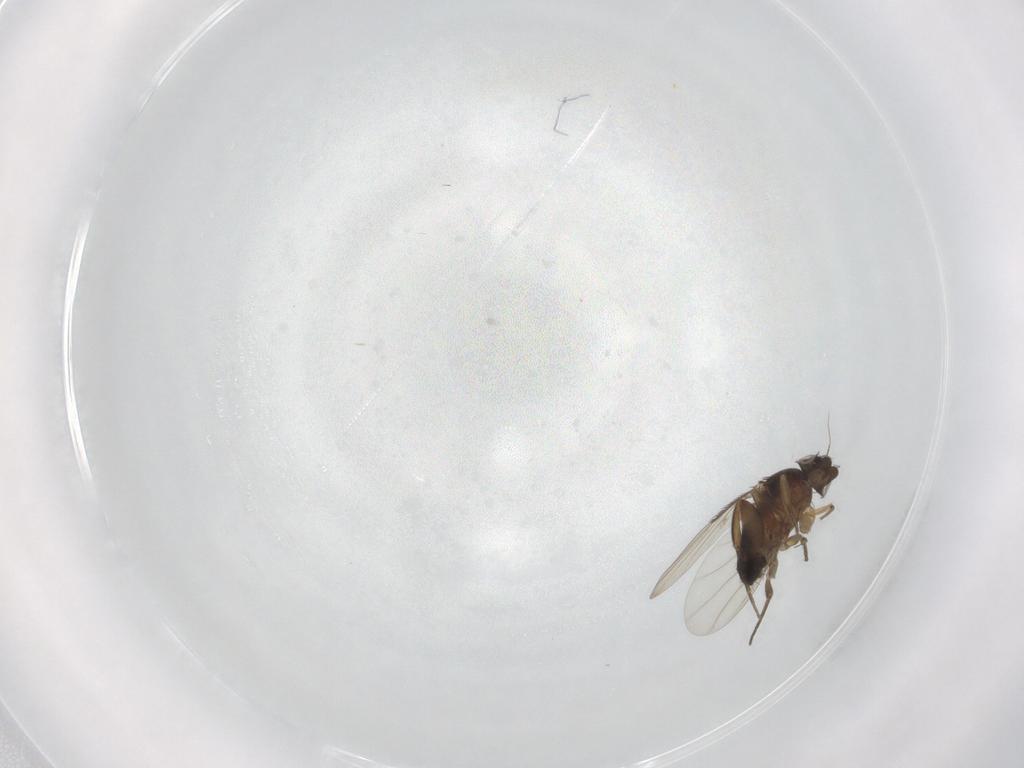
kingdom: Animalia
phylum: Arthropoda
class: Insecta
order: Diptera
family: Phoridae
